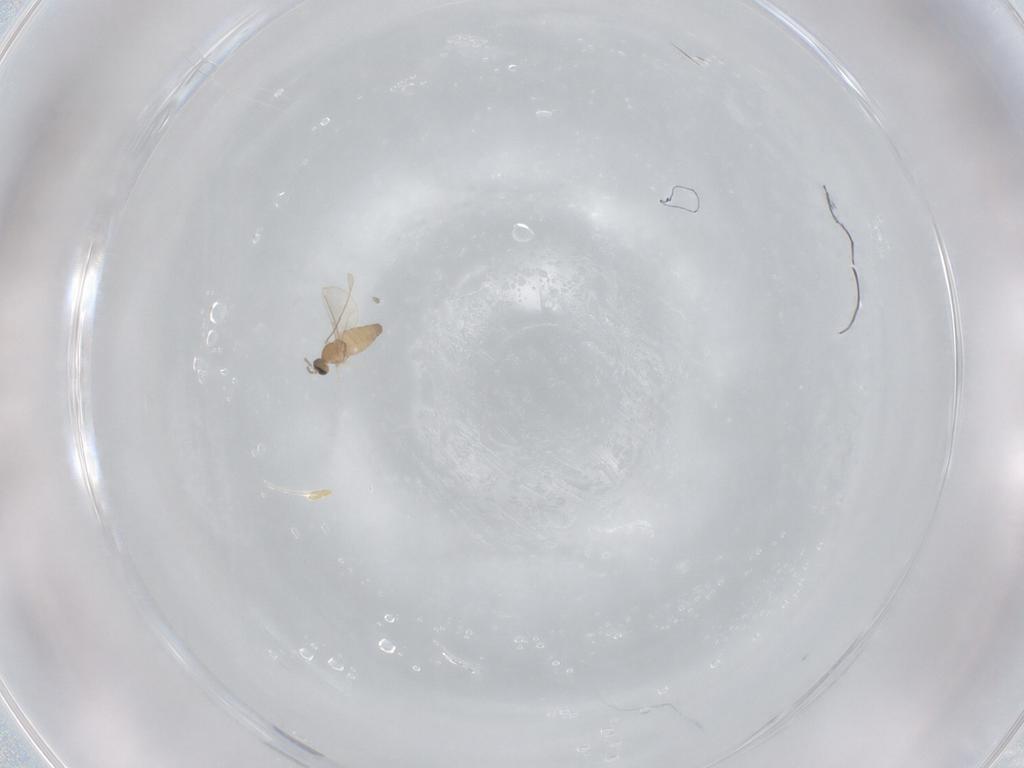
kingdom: Animalia
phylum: Arthropoda
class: Insecta
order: Diptera
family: Cecidomyiidae
